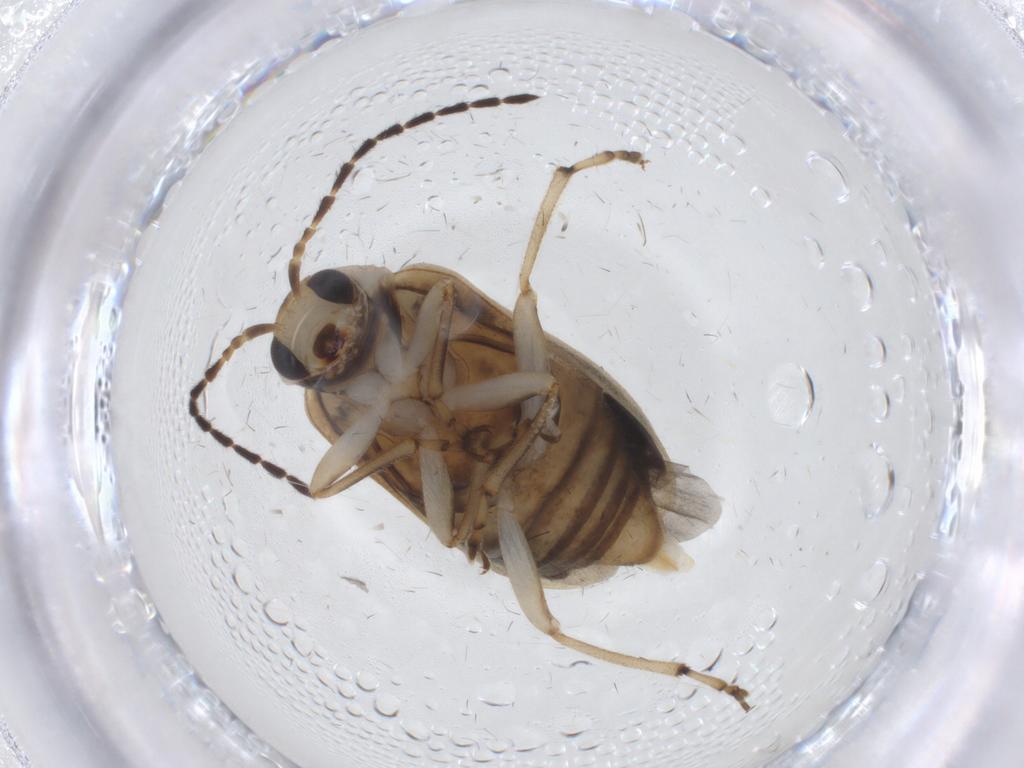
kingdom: Animalia
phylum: Arthropoda
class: Insecta
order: Coleoptera
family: Chrysomelidae
